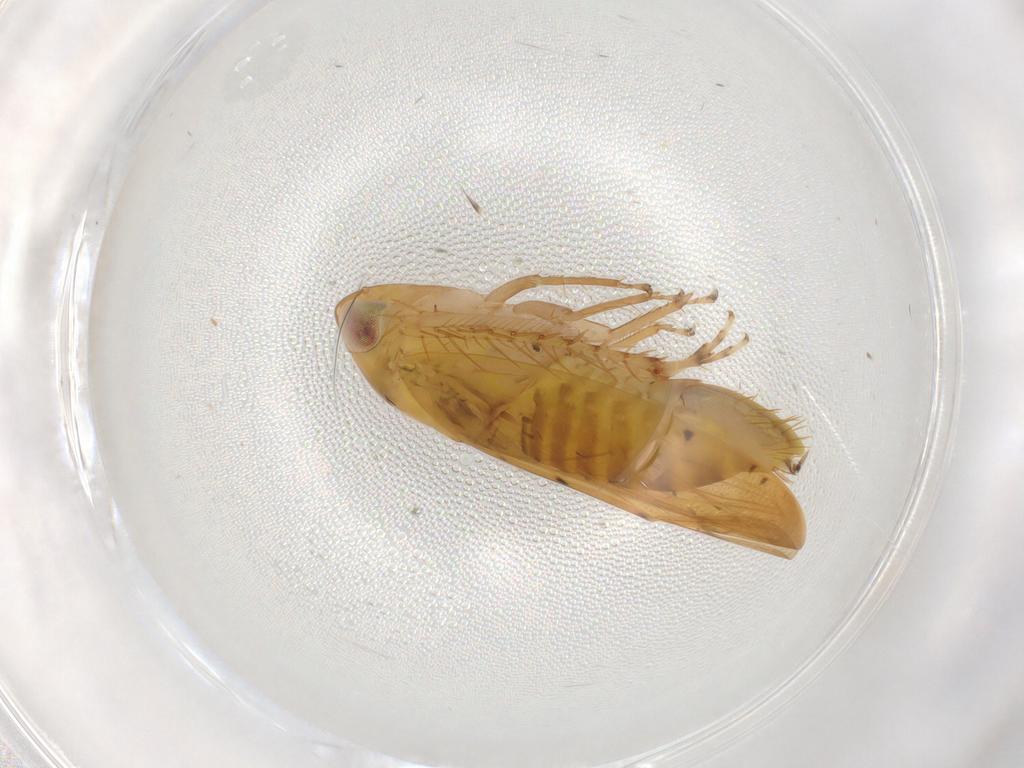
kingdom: Animalia
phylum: Arthropoda
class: Insecta
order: Hemiptera
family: Cicadellidae
